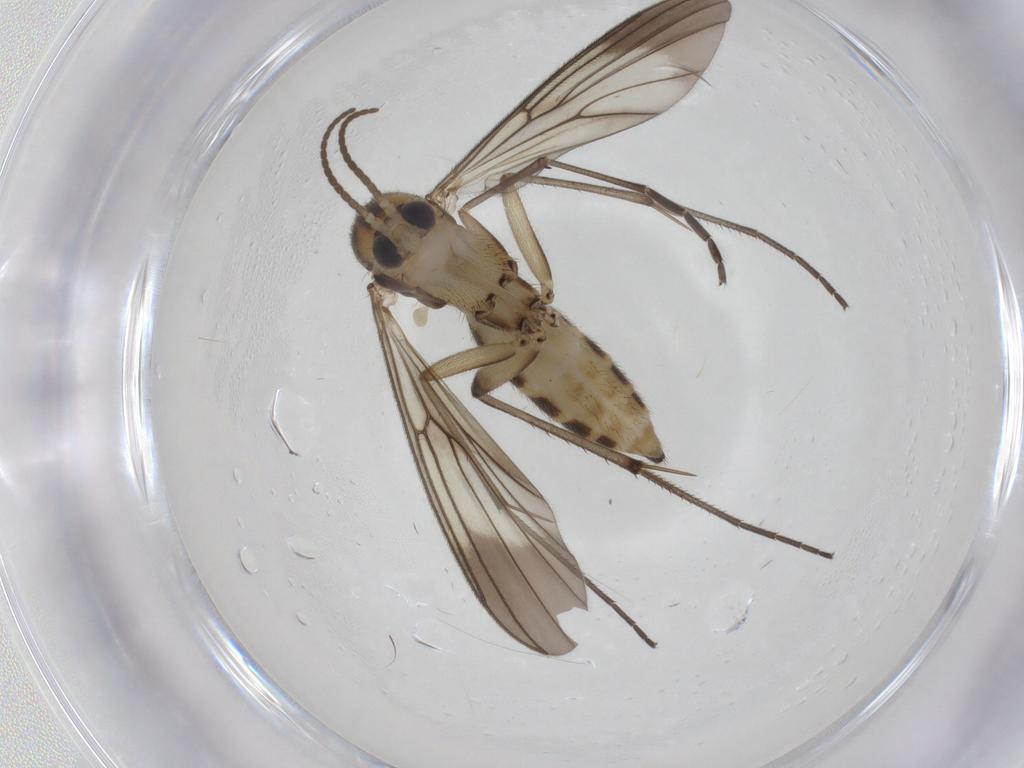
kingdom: Animalia
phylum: Arthropoda
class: Insecta
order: Diptera
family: Mycetophilidae
